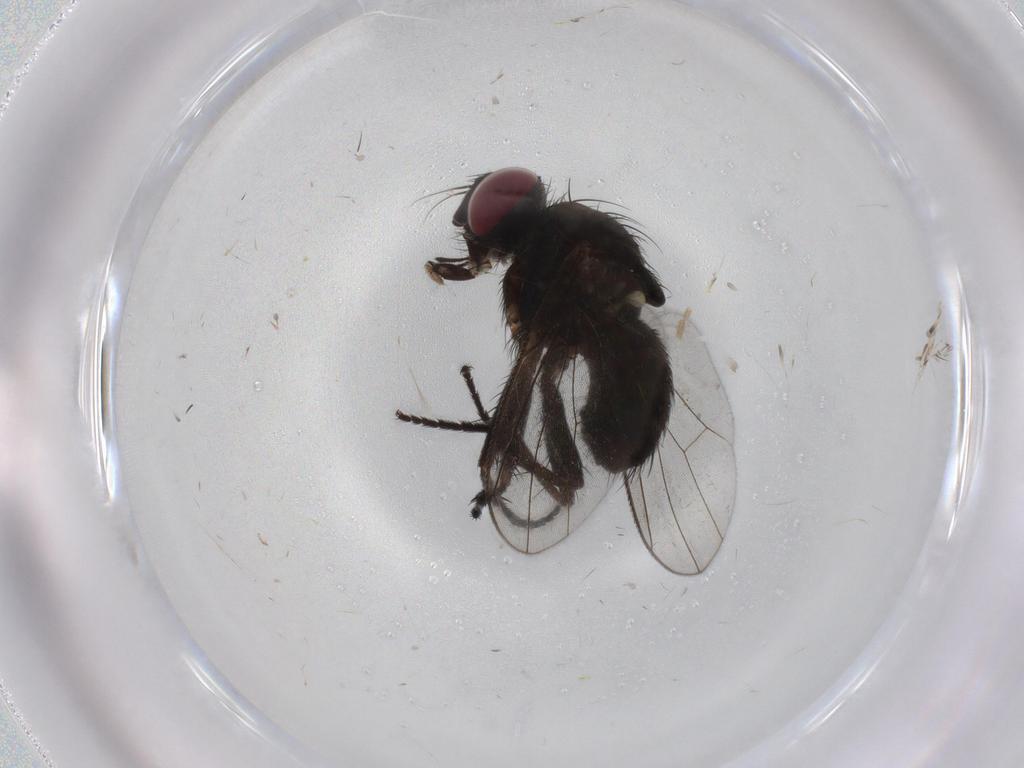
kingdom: Animalia
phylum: Arthropoda
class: Insecta
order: Diptera
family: Muscidae
